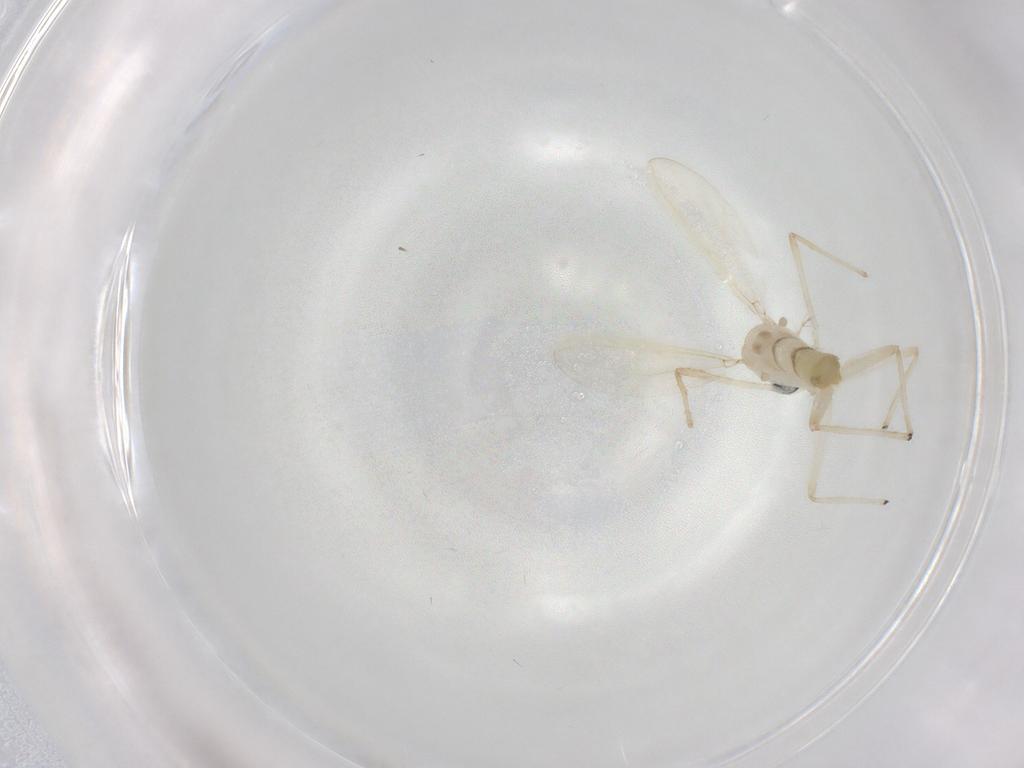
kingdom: Animalia
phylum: Arthropoda
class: Insecta
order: Diptera
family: Chironomidae
